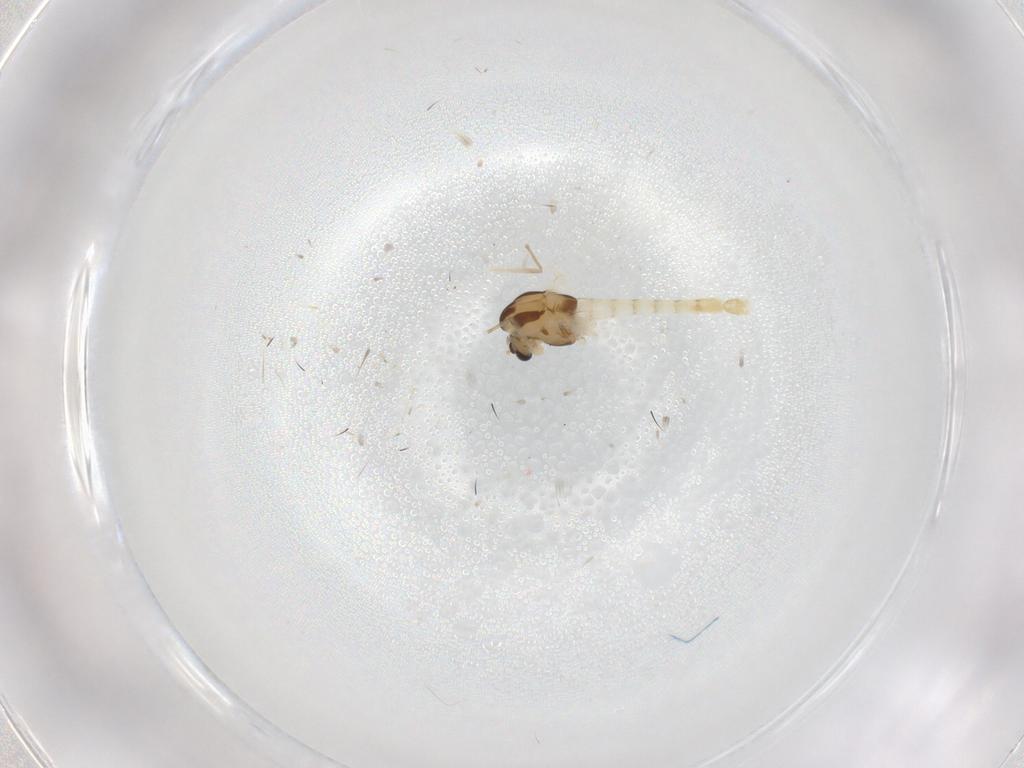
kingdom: Animalia
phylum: Arthropoda
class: Insecta
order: Diptera
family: Chironomidae
